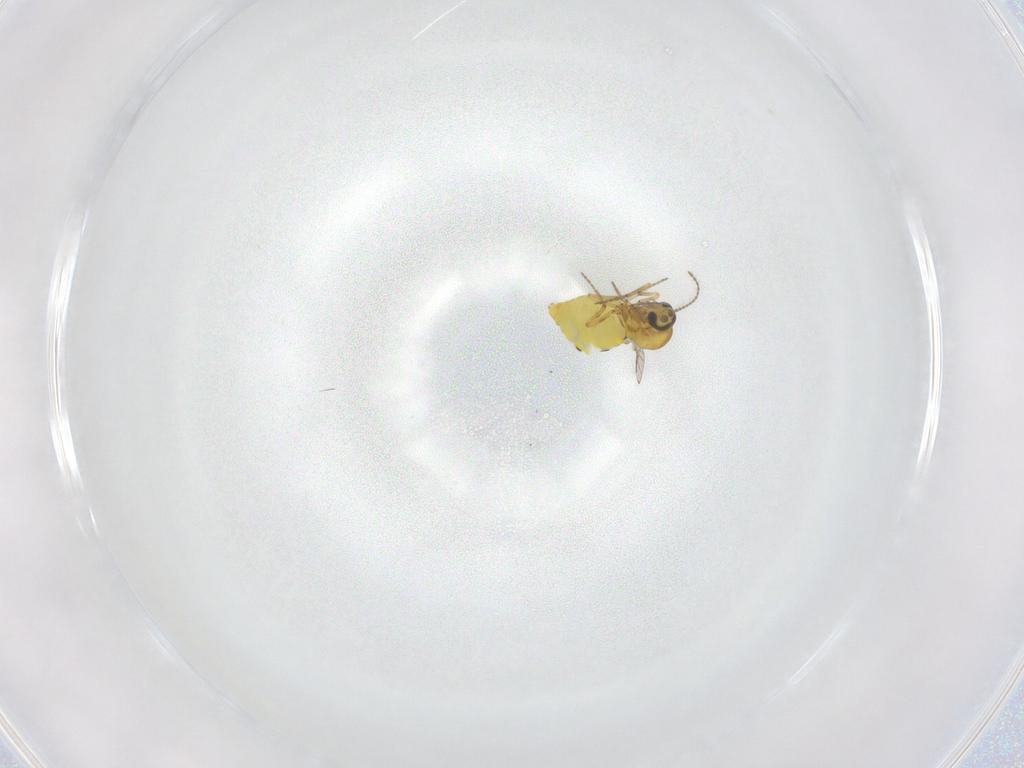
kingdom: Animalia
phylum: Arthropoda
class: Insecta
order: Diptera
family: Ceratopogonidae
